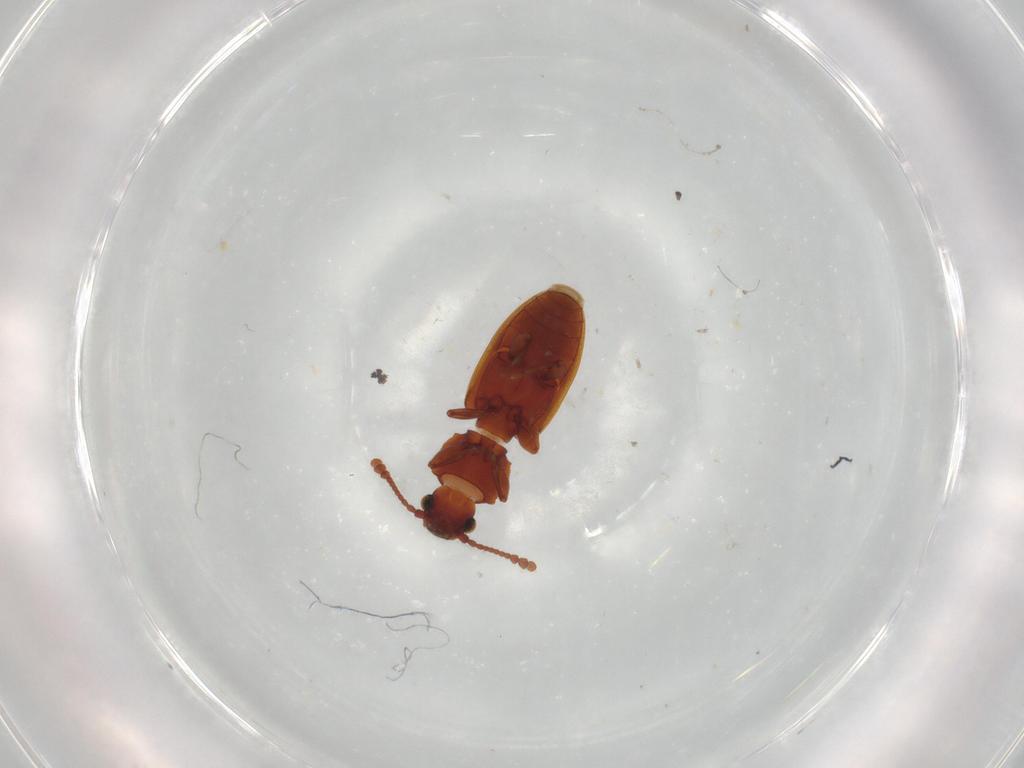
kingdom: Animalia
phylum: Arthropoda
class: Insecta
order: Coleoptera
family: Silvanidae
